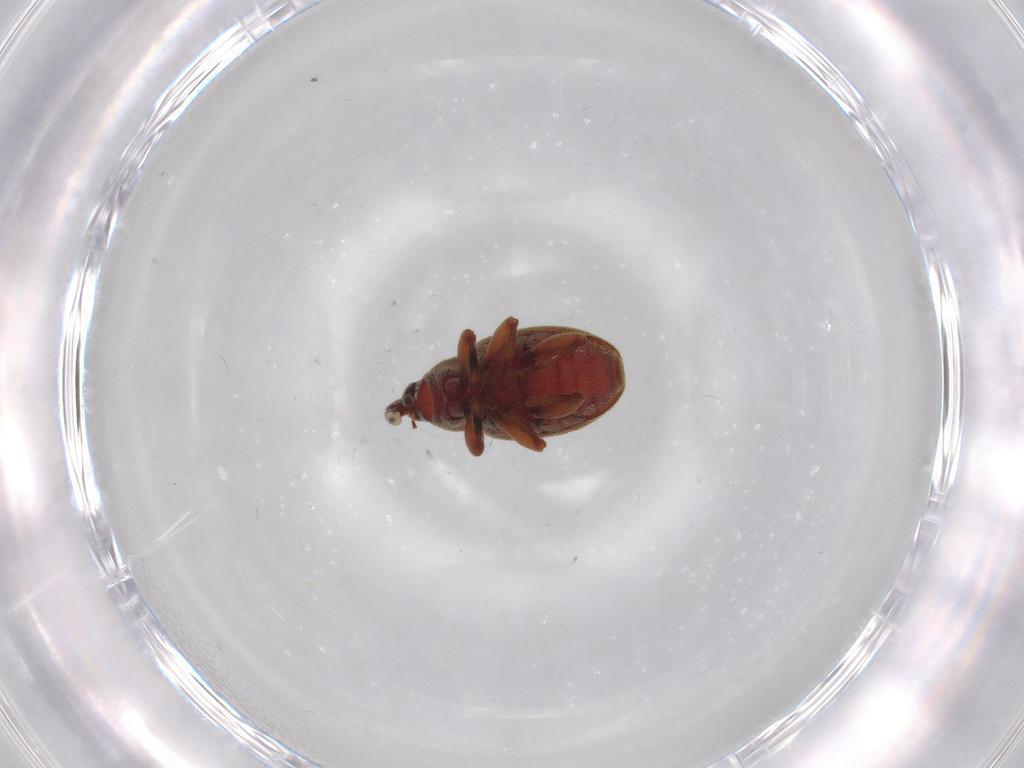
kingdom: Animalia
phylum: Arthropoda
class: Insecta
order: Coleoptera
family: Curculionidae
